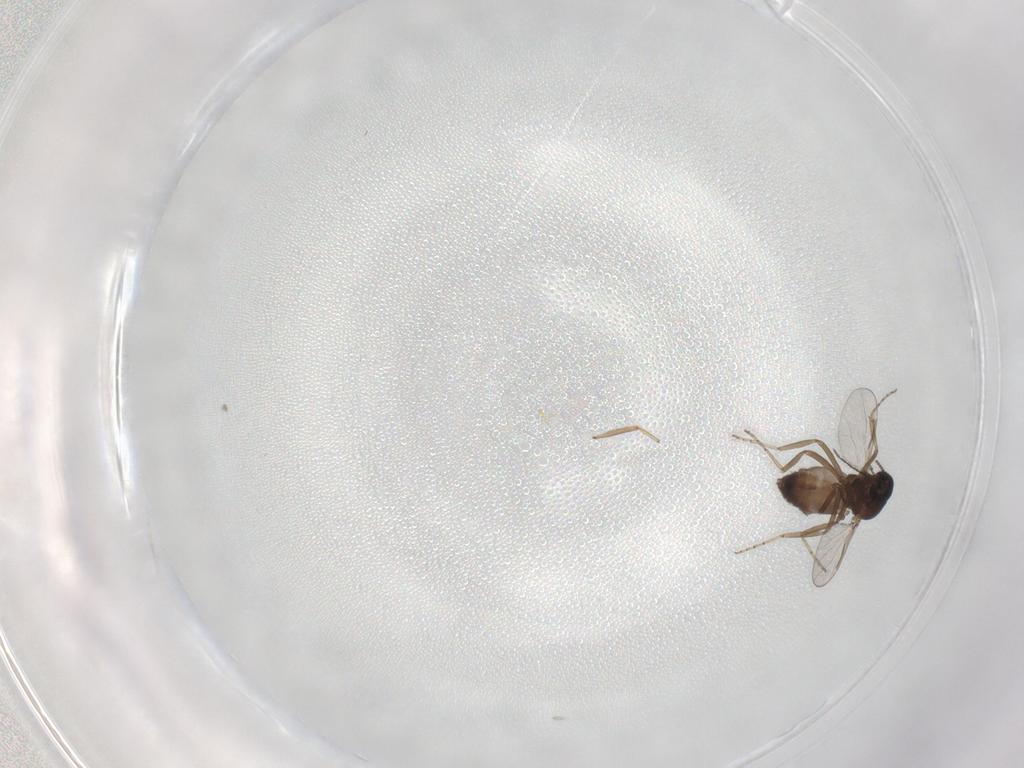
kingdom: Animalia
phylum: Arthropoda
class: Insecta
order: Diptera
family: Ceratopogonidae
